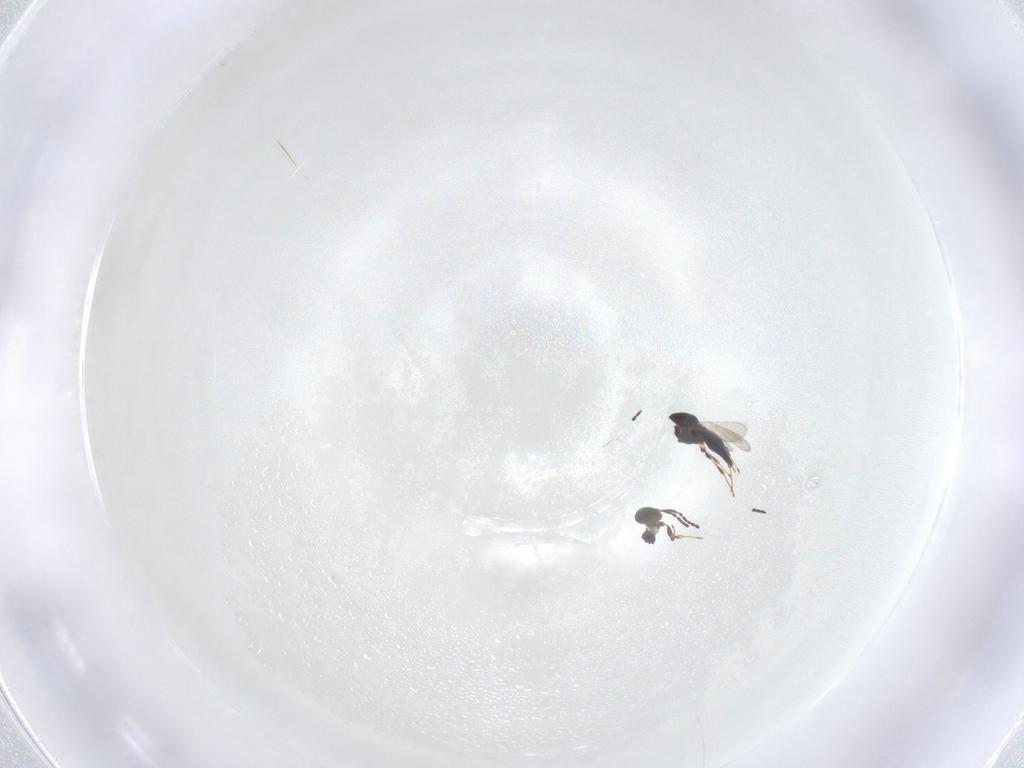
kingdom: Animalia
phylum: Arthropoda
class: Insecta
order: Hymenoptera
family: Platygastridae
